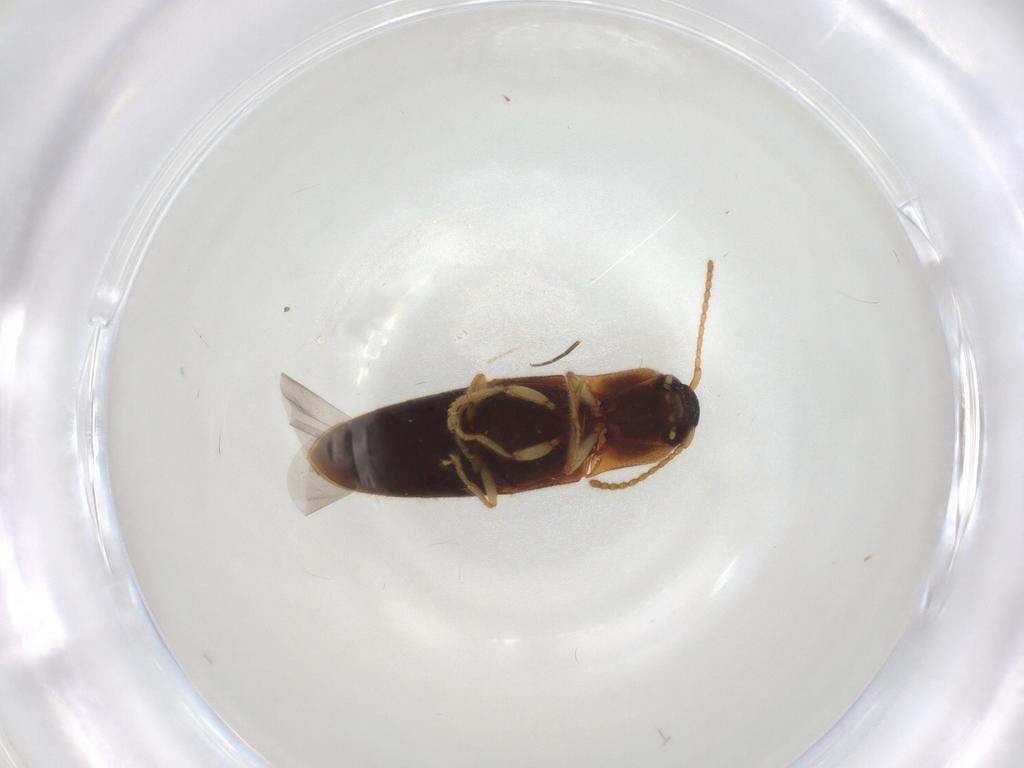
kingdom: Animalia
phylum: Arthropoda
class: Insecta
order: Coleoptera
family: Elateridae
